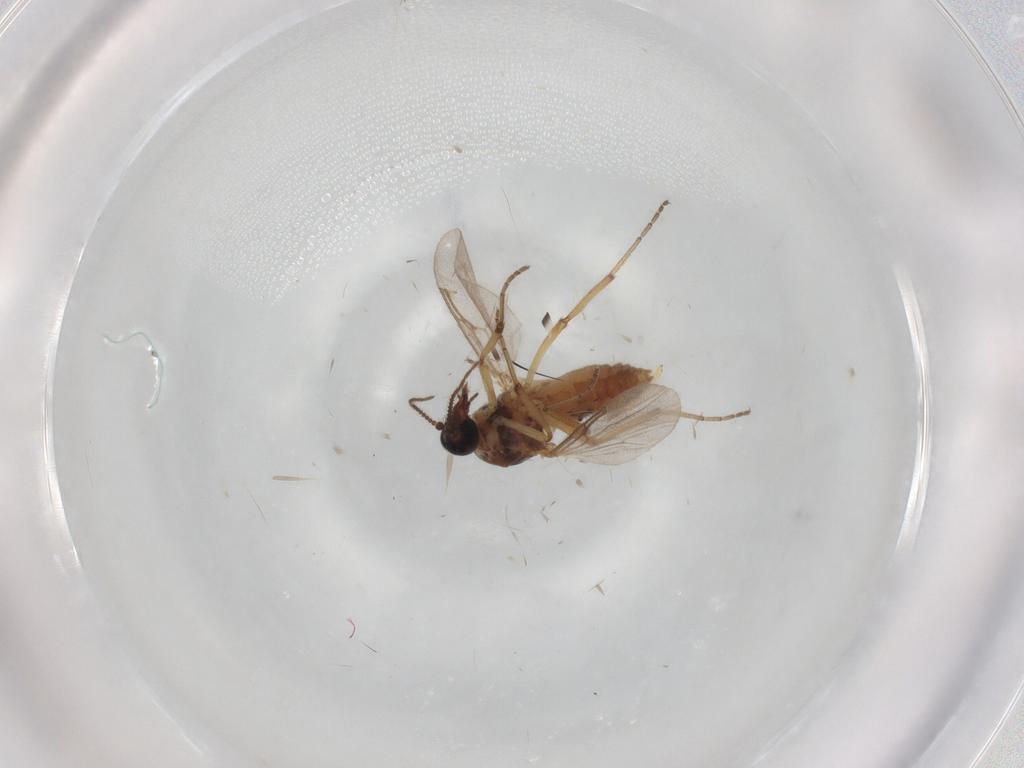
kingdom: Animalia
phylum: Arthropoda
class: Insecta
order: Diptera
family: Ceratopogonidae
